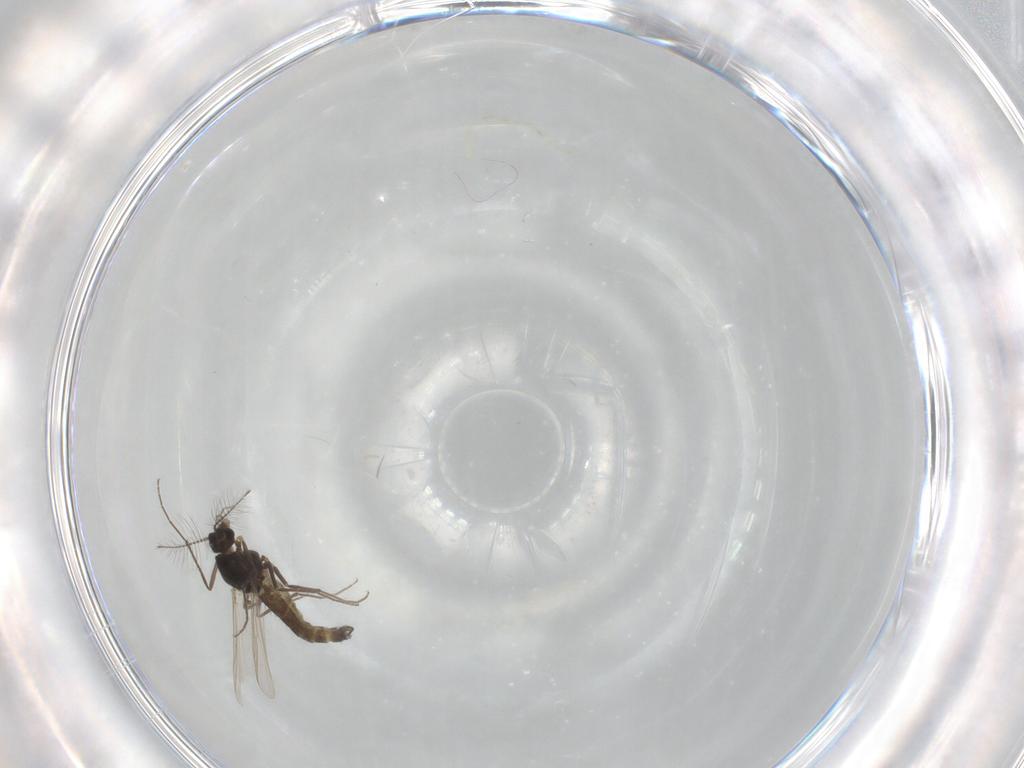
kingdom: Animalia
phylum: Arthropoda
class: Insecta
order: Diptera
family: Chironomidae
